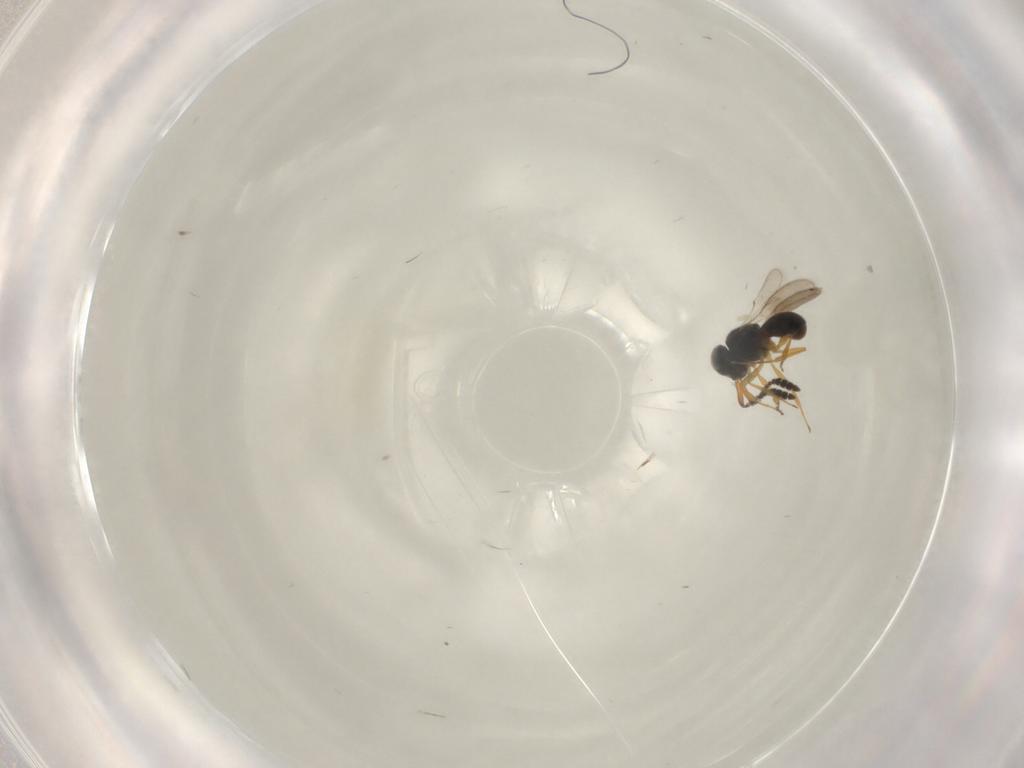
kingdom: Animalia
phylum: Arthropoda
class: Insecta
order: Hymenoptera
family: Scelionidae
